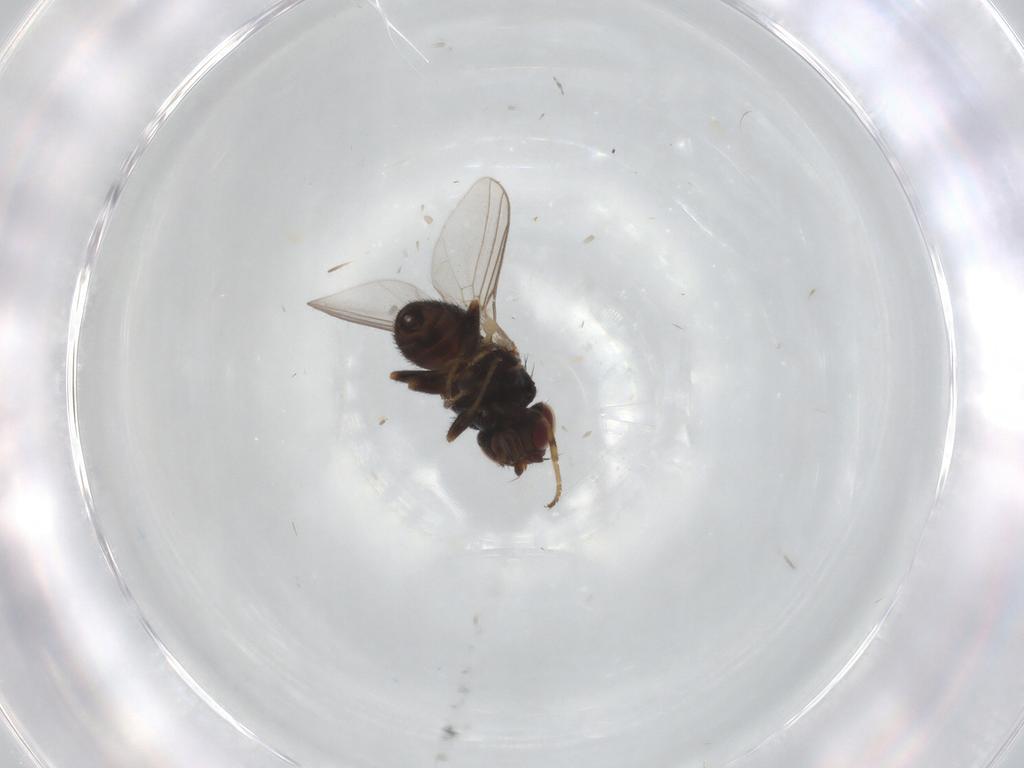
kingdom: Animalia
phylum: Arthropoda
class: Insecta
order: Diptera
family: Chloropidae
